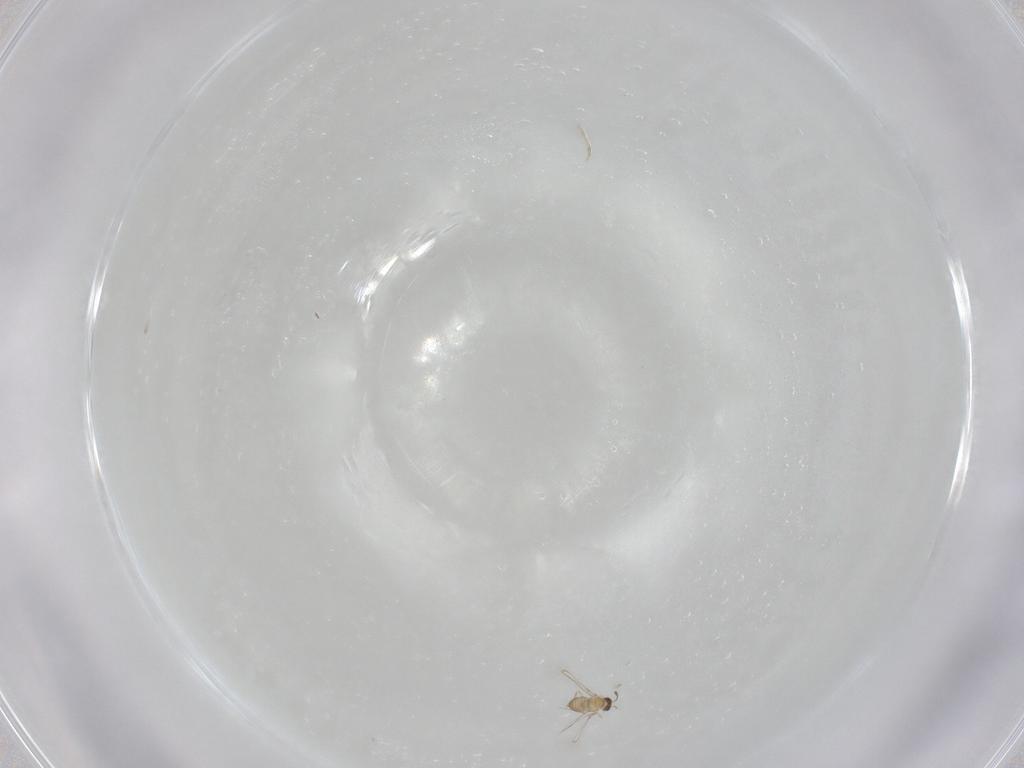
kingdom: Animalia
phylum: Arthropoda
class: Insecta
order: Hymenoptera
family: Mymaridae
